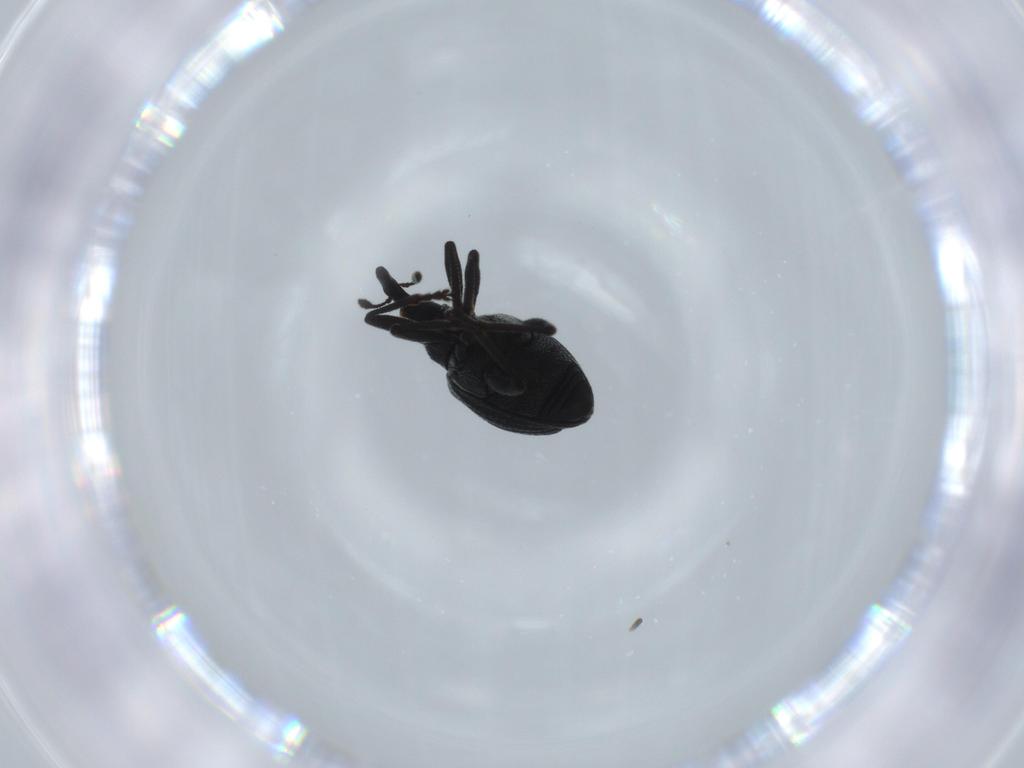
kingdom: Animalia
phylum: Arthropoda
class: Insecta
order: Coleoptera
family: Brentidae
